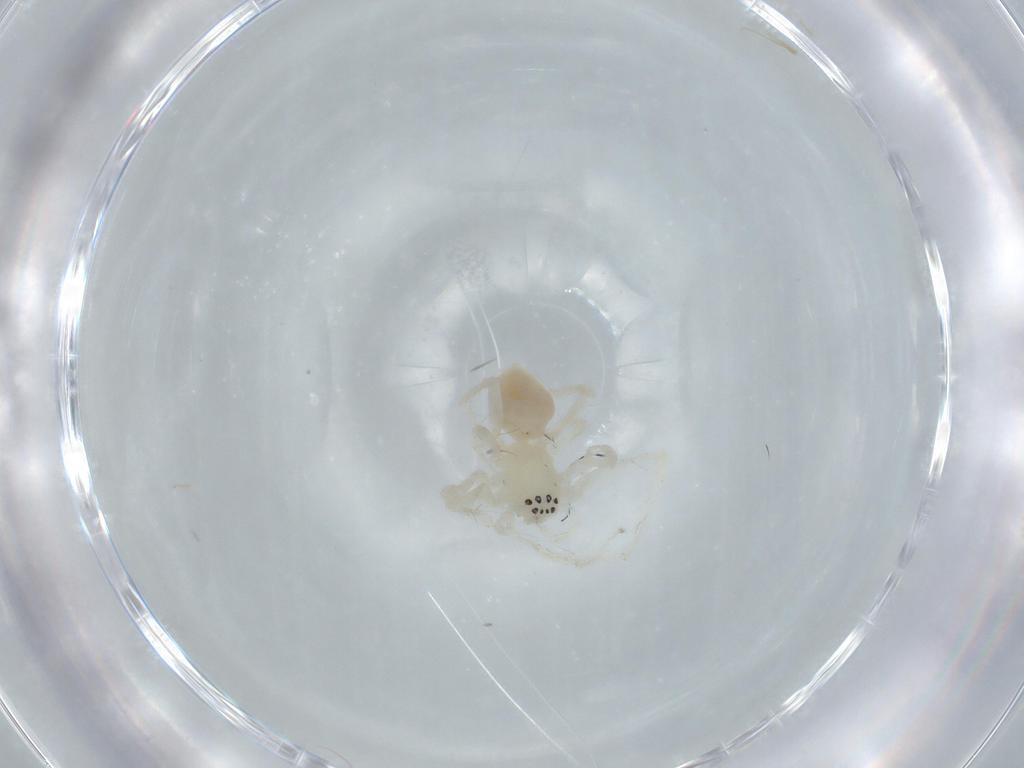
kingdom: Animalia
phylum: Arthropoda
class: Arachnida
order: Araneae
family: Anyphaenidae
